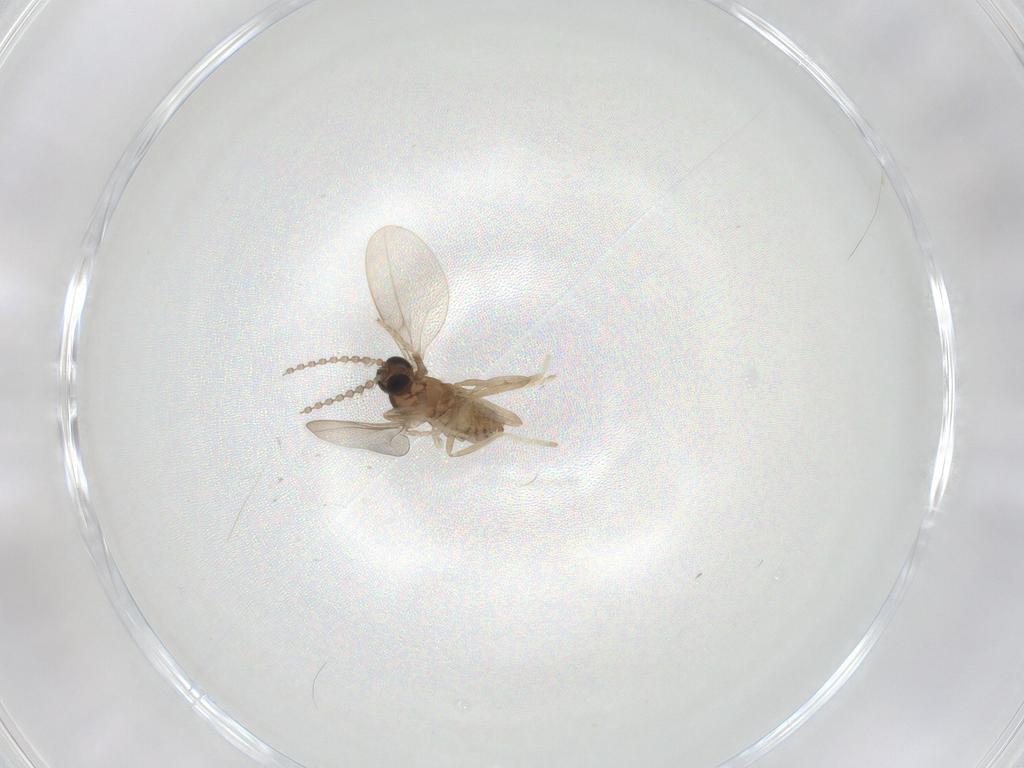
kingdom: Animalia
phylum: Arthropoda
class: Insecta
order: Diptera
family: Cecidomyiidae
